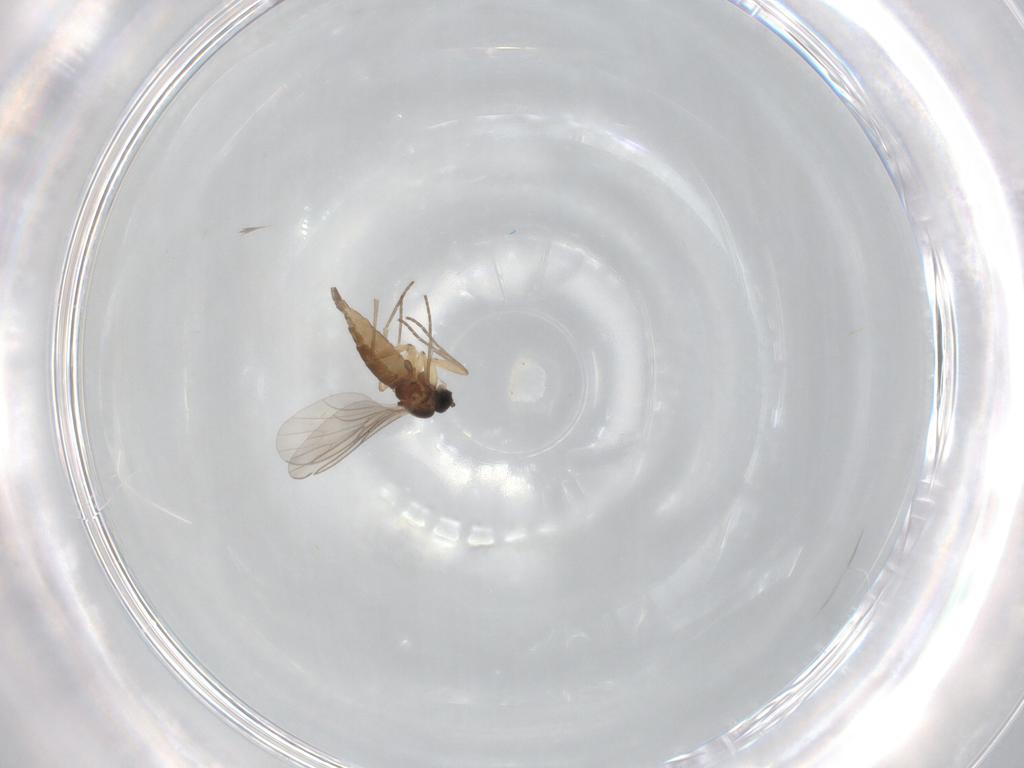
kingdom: Animalia
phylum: Arthropoda
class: Insecta
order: Diptera
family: Sciaridae
